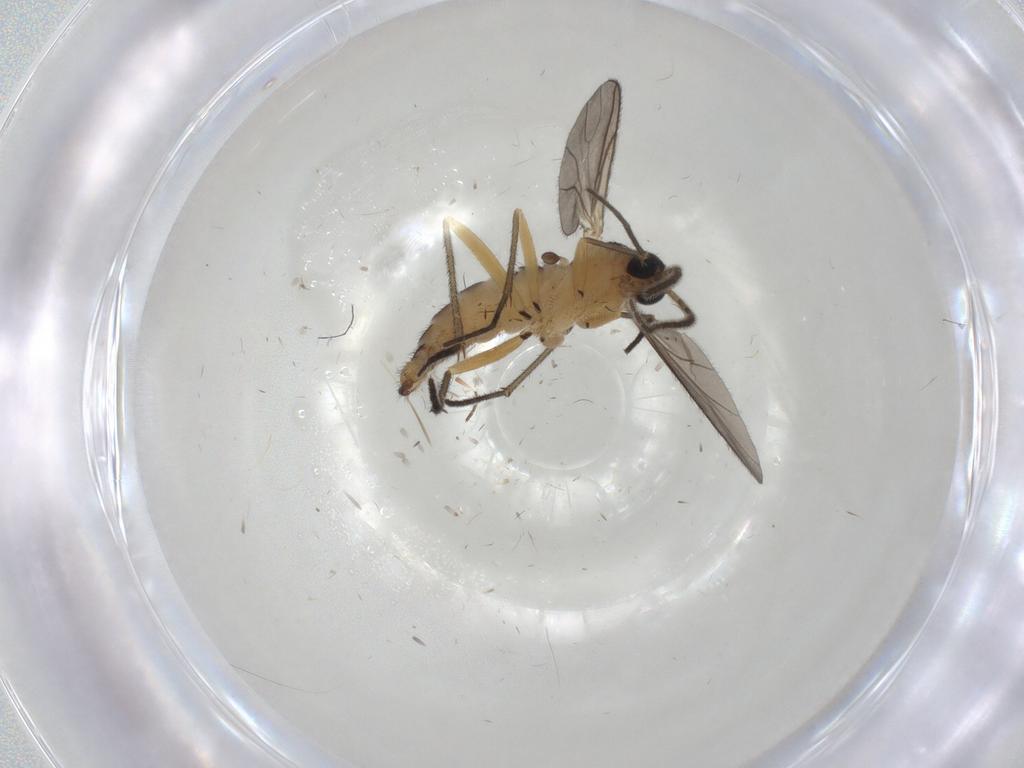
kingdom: Animalia
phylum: Arthropoda
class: Insecta
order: Diptera
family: Sciaridae
